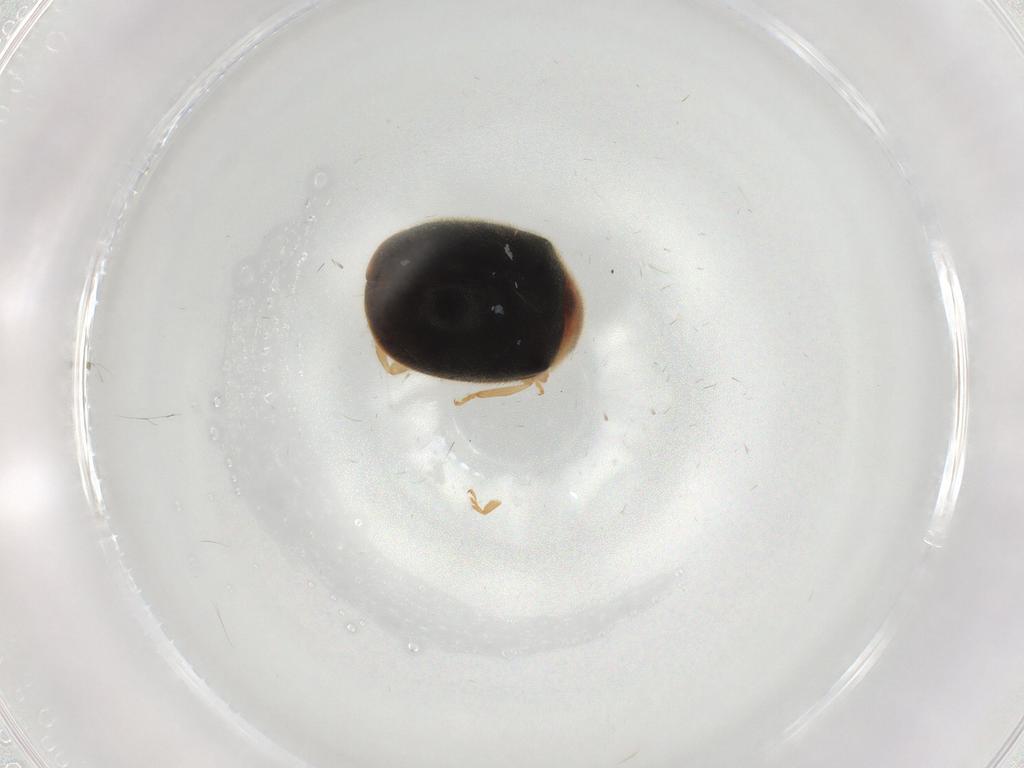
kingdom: Animalia
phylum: Arthropoda
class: Insecta
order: Coleoptera
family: Coccinellidae
